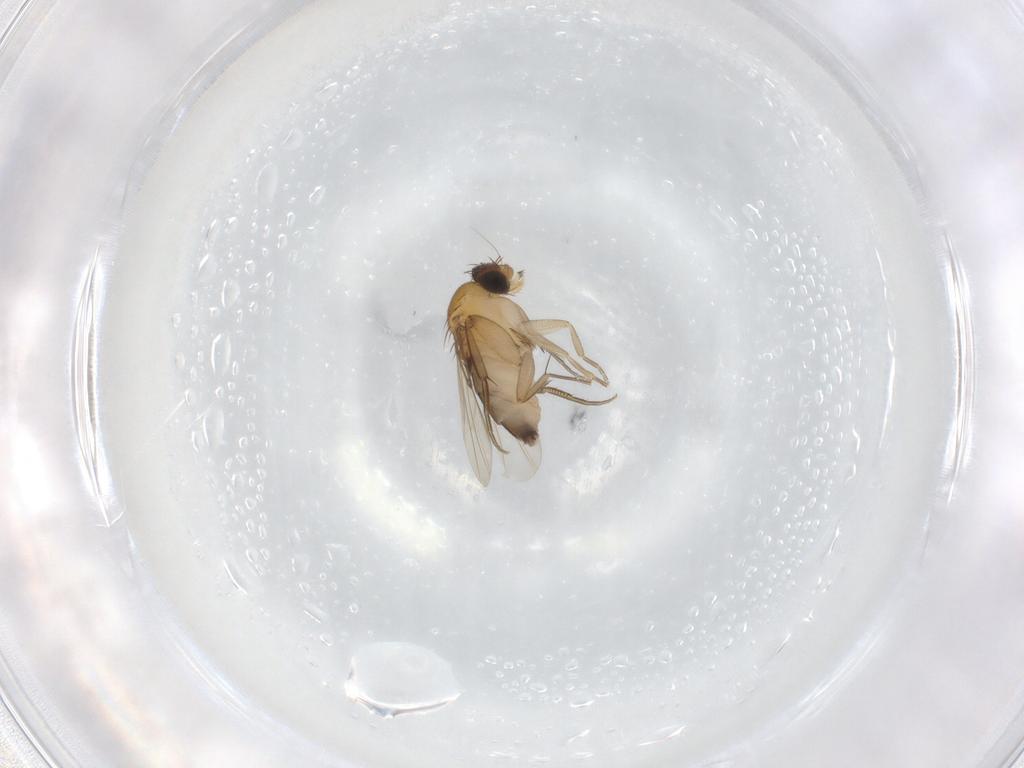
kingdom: Animalia
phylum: Arthropoda
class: Insecta
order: Diptera
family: Phoridae
